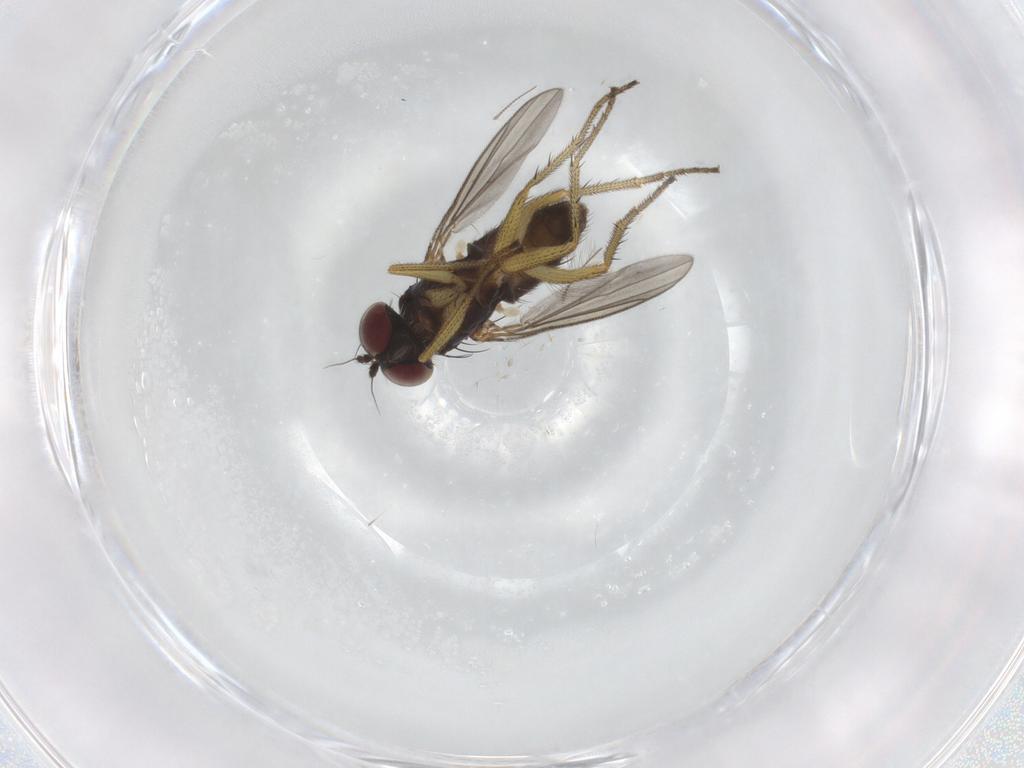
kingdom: Animalia
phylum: Arthropoda
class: Insecta
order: Diptera
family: Chironomidae
